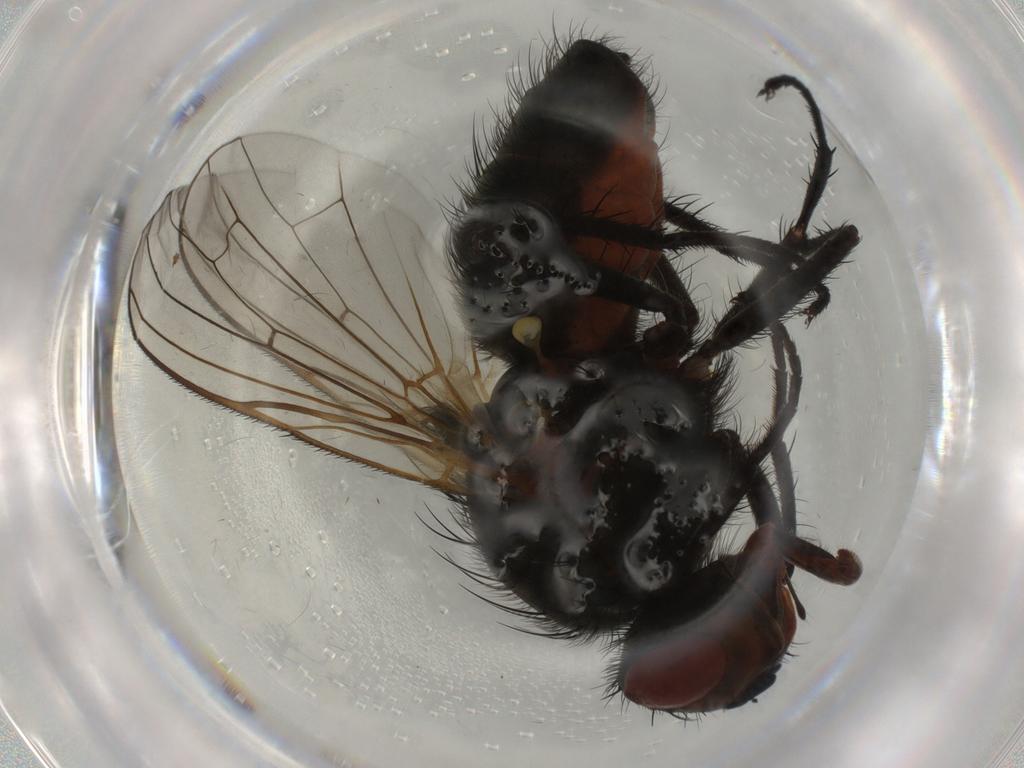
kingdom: Animalia
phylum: Arthropoda
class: Insecta
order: Diptera
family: Anthomyiidae
